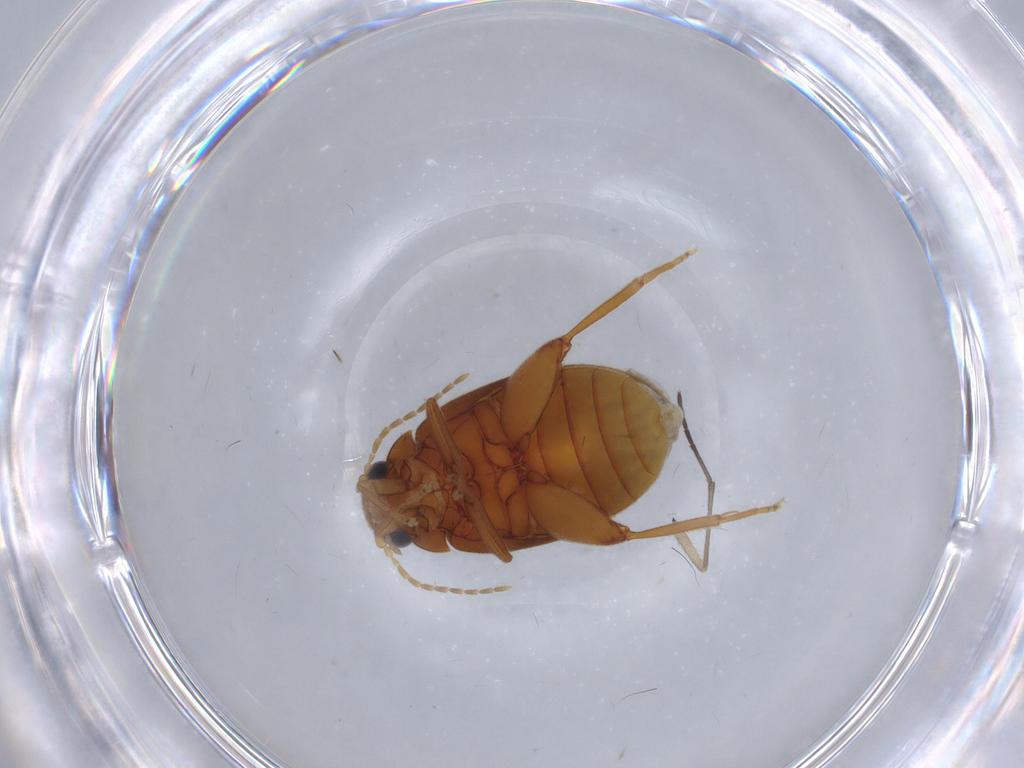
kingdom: Animalia
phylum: Arthropoda
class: Insecta
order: Coleoptera
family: Scirtidae
